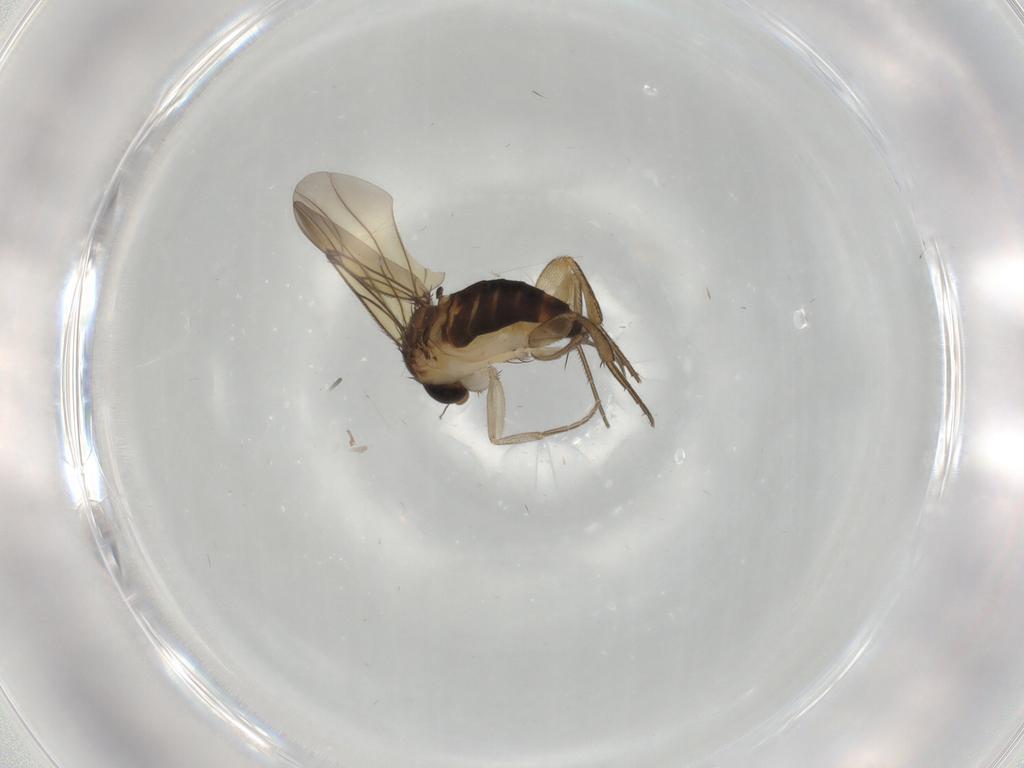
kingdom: Animalia
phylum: Arthropoda
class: Insecta
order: Diptera
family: Phoridae
